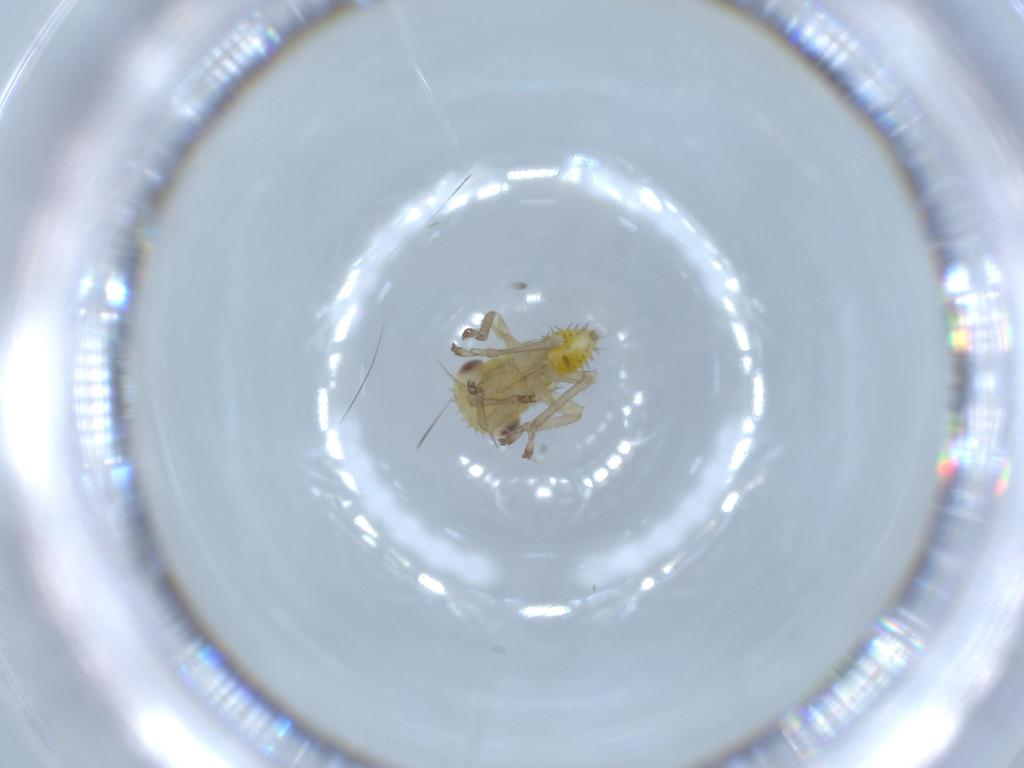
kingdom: Animalia
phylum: Arthropoda
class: Insecta
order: Hemiptera
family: Cicadellidae
